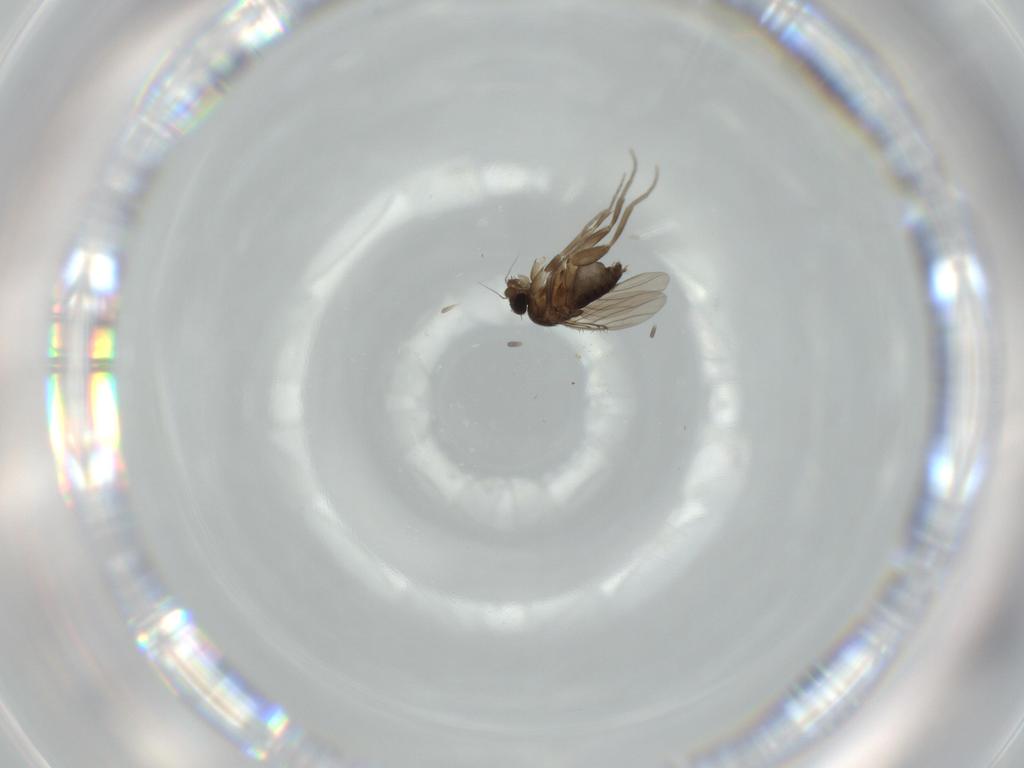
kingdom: Animalia
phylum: Arthropoda
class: Insecta
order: Diptera
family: Phoridae
